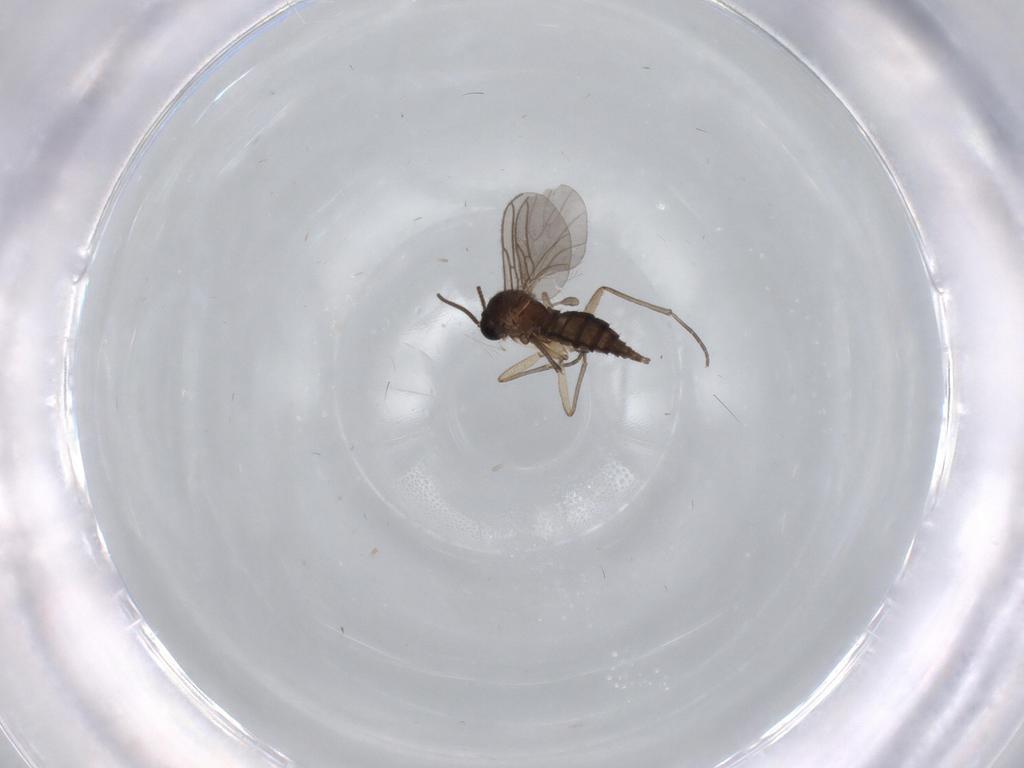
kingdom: Animalia
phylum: Arthropoda
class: Insecta
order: Diptera
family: Sciaridae
